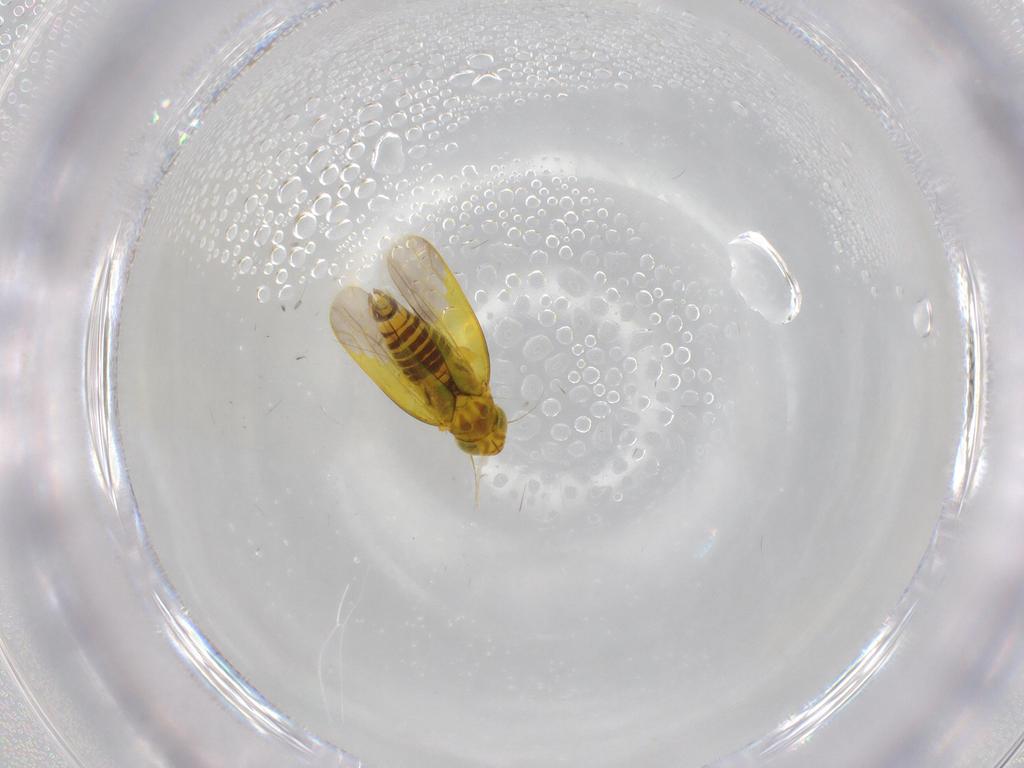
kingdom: Animalia
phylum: Arthropoda
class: Insecta
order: Hemiptera
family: Cicadellidae
